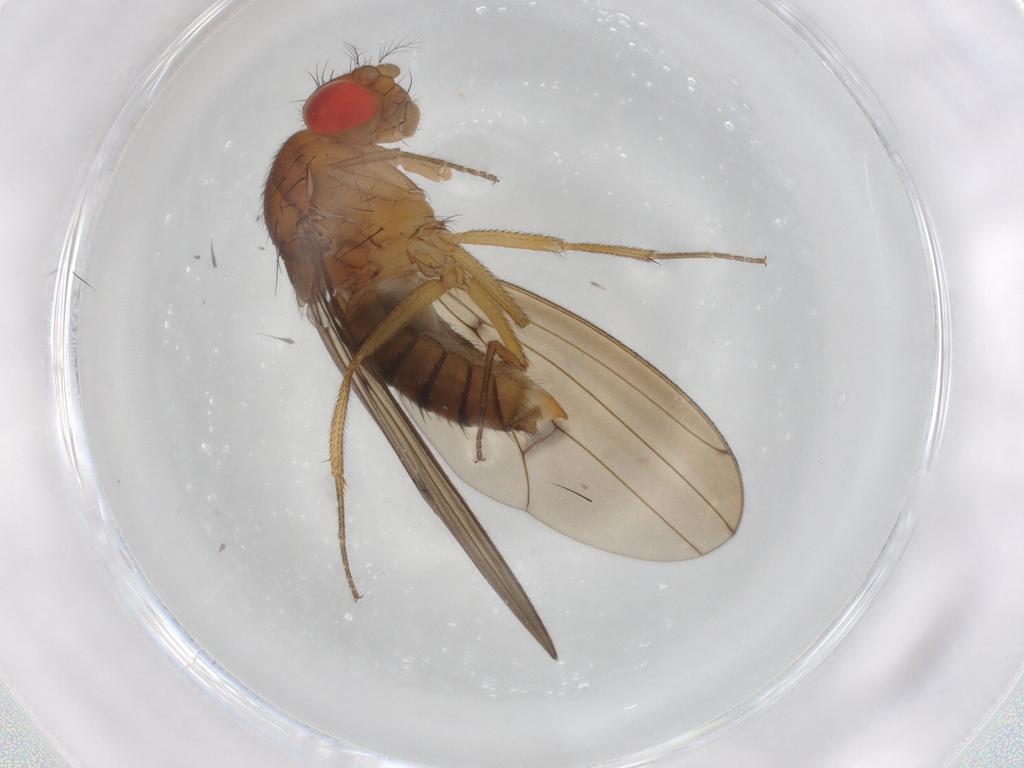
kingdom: Animalia
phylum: Arthropoda
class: Insecta
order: Diptera
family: Drosophilidae
